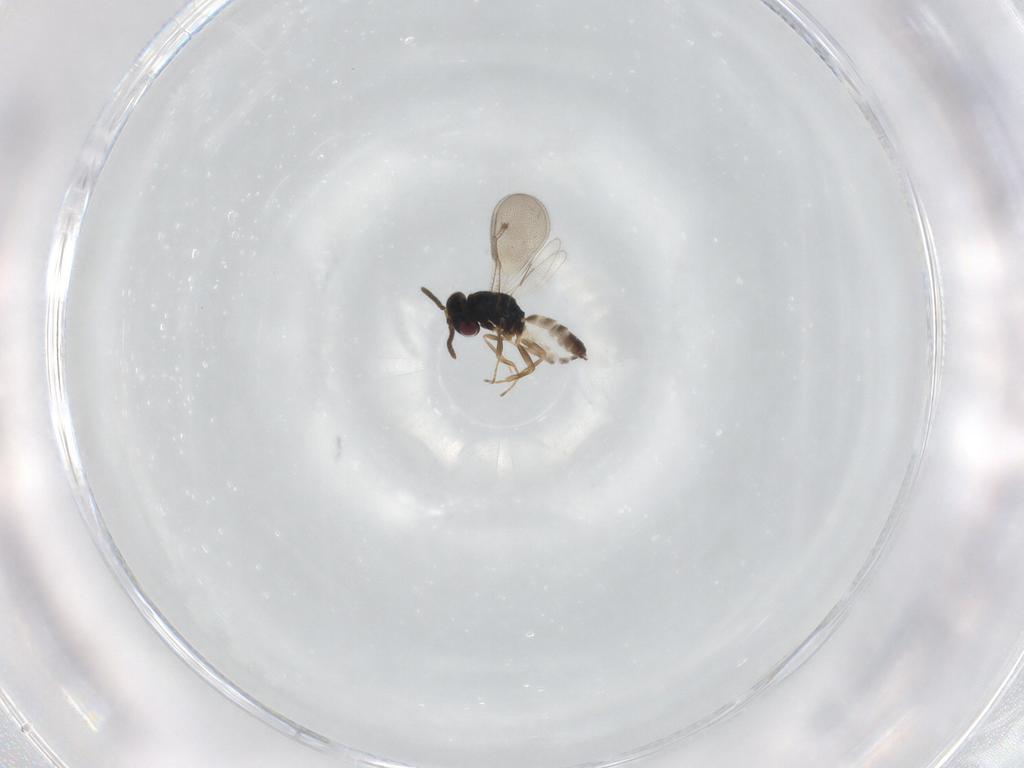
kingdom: Animalia
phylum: Arthropoda
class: Insecta
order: Hymenoptera
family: Pteromalidae
